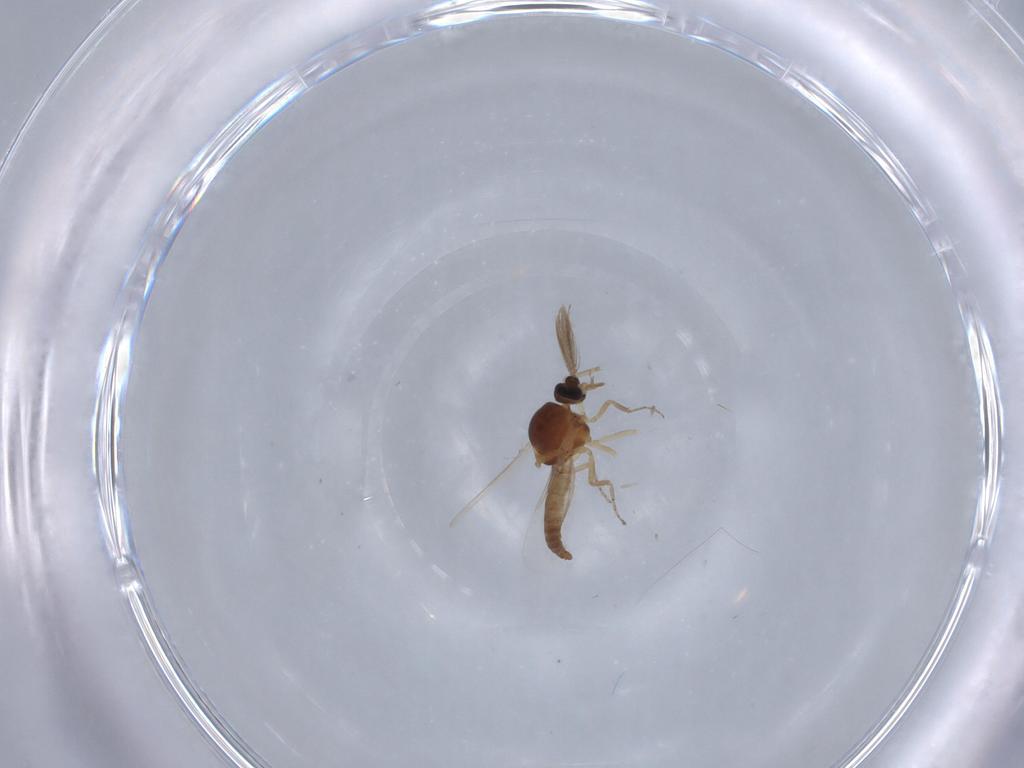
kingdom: Animalia
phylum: Arthropoda
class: Insecta
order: Diptera
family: Ceratopogonidae
